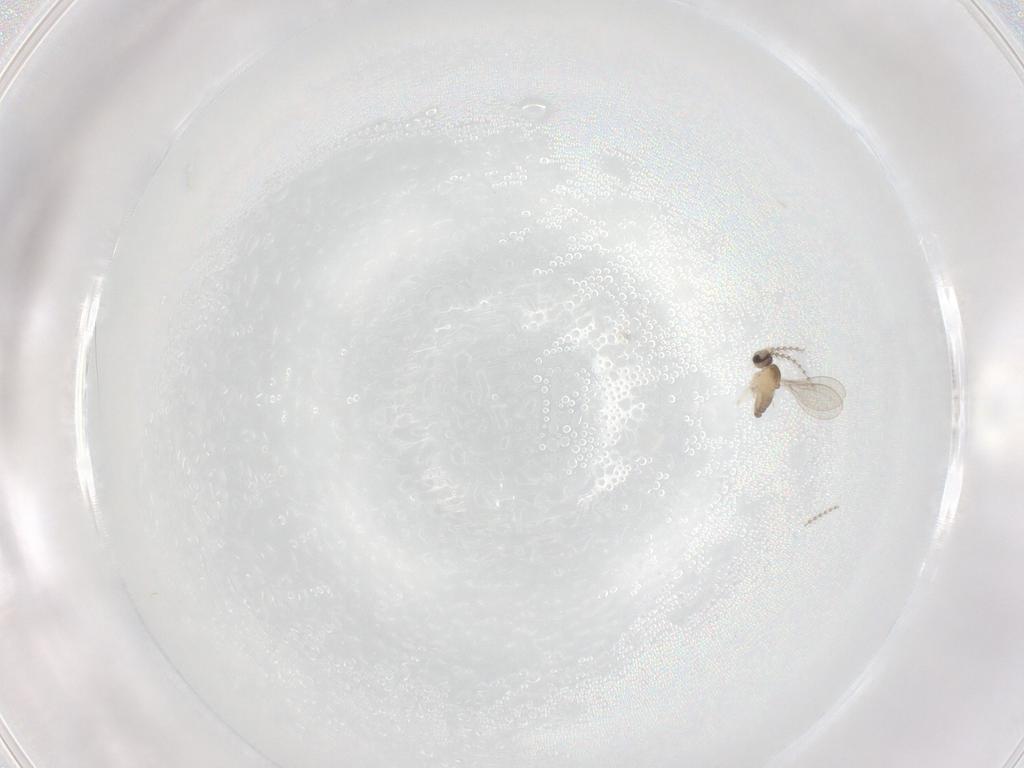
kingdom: Animalia
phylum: Arthropoda
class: Insecta
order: Diptera
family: Cecidomyiidae
